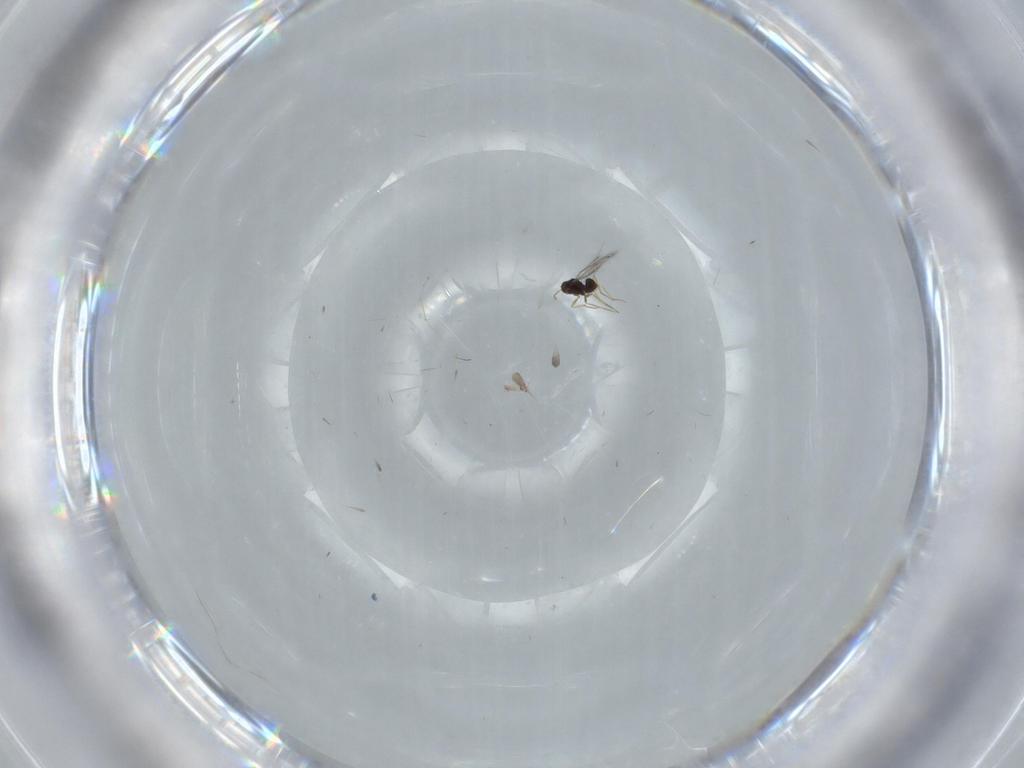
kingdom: Animalia
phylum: Arthropoda
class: Insecta
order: Hymenoptera
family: Mymaridae
